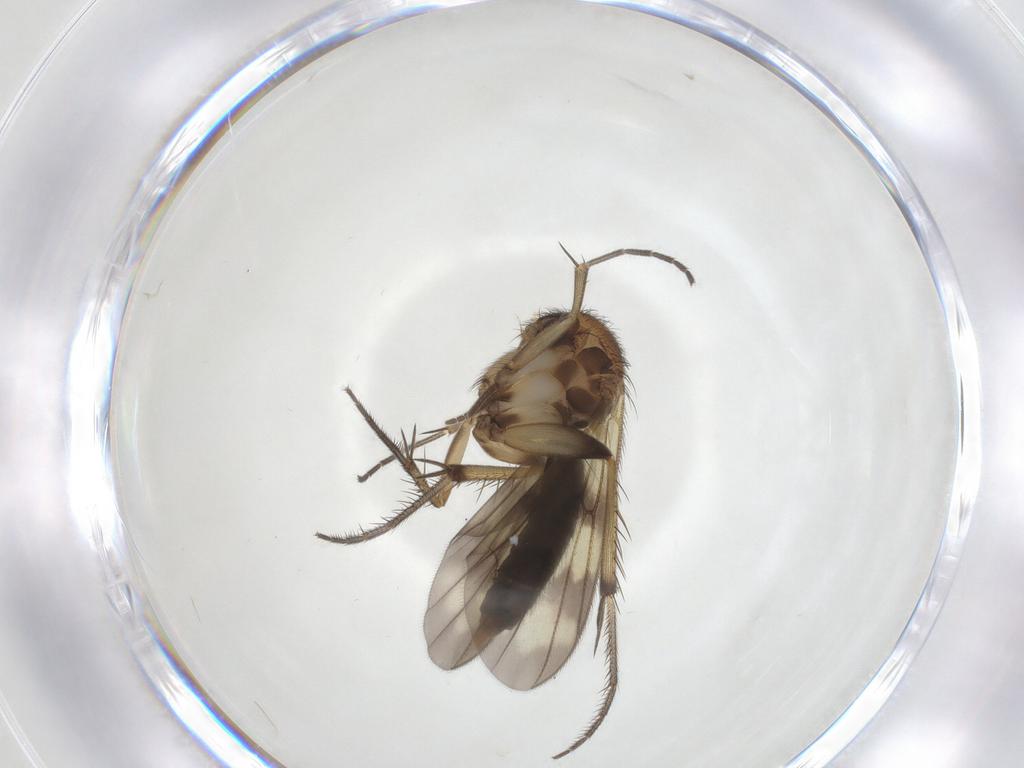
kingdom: Animalia
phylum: Arthropoda
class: Insecta
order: Diptera
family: Mycetophilidae
